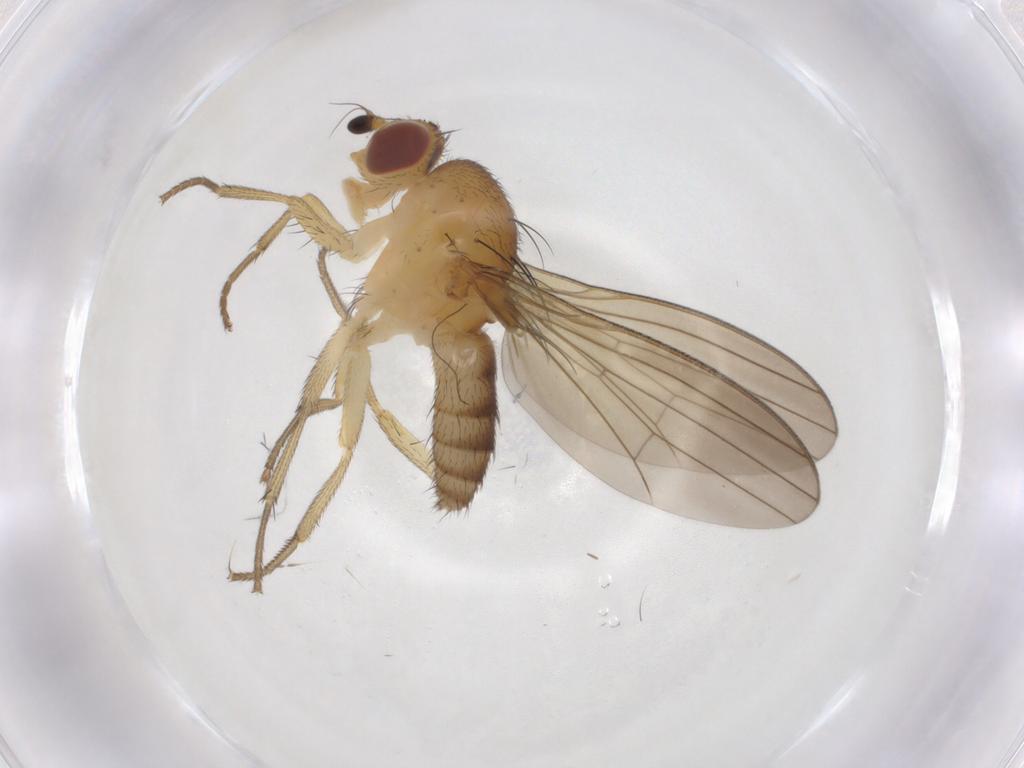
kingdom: Animalia
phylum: Arthropoda
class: Insecta
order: Diptera
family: Lauxaniidae
